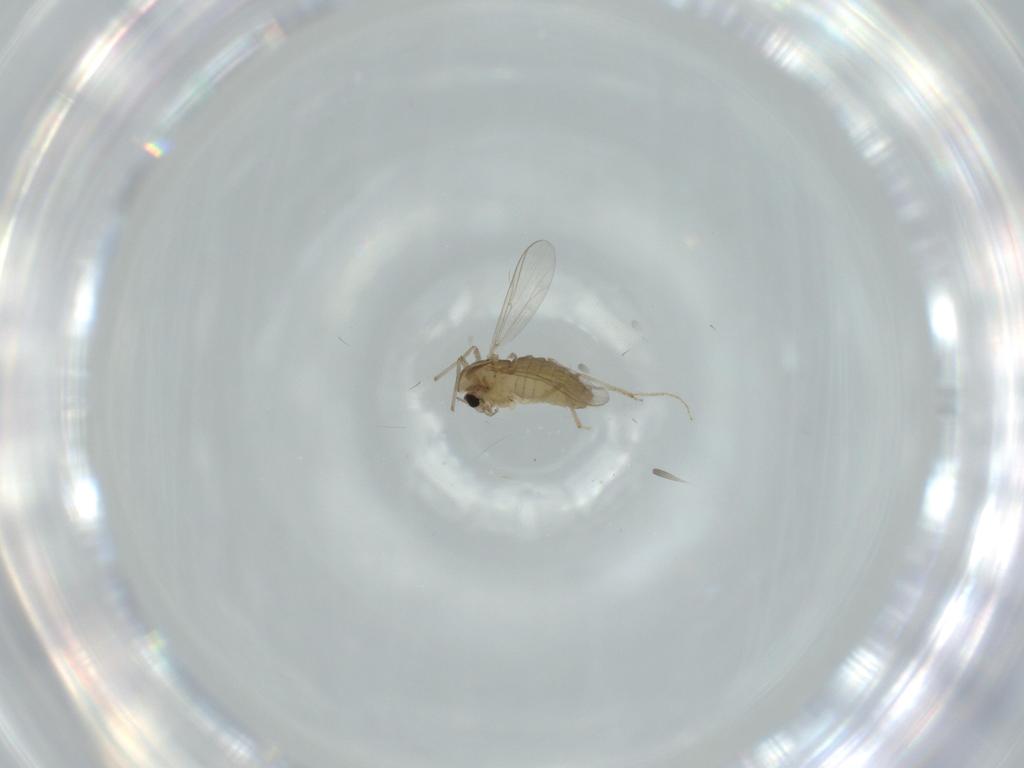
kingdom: Animalia
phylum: Arthropoda
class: Insecta
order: Diptera
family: Chironomidae
